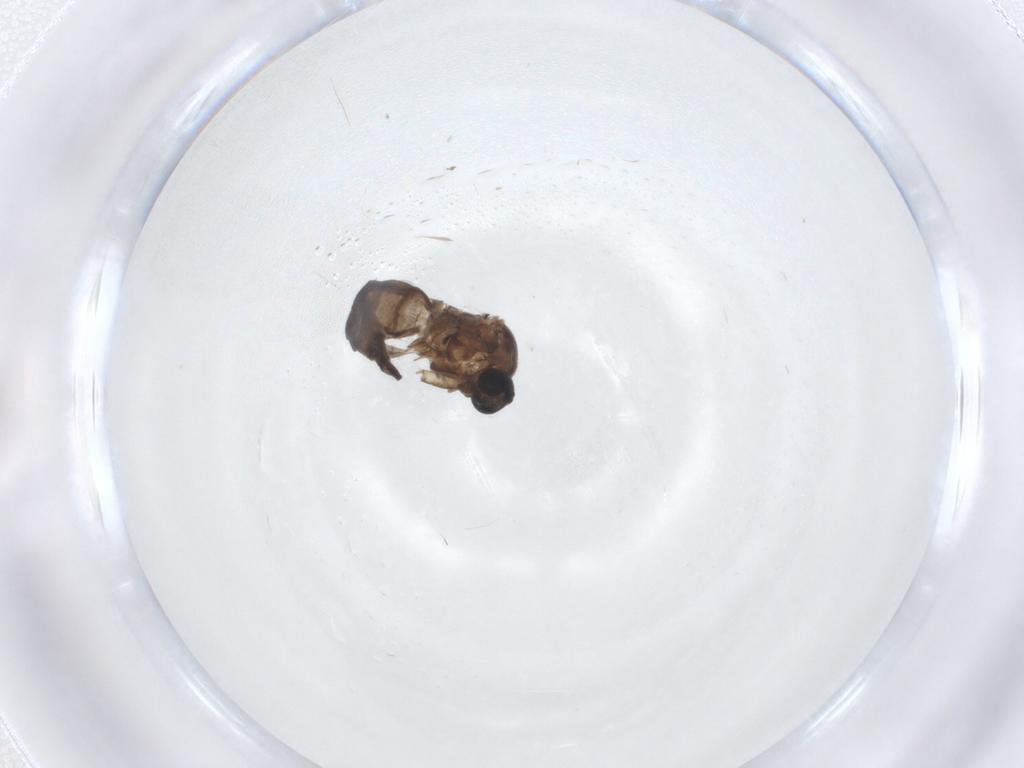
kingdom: Animalia
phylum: Arthropoda
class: Insecta
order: Diptera
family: Sciaridae
